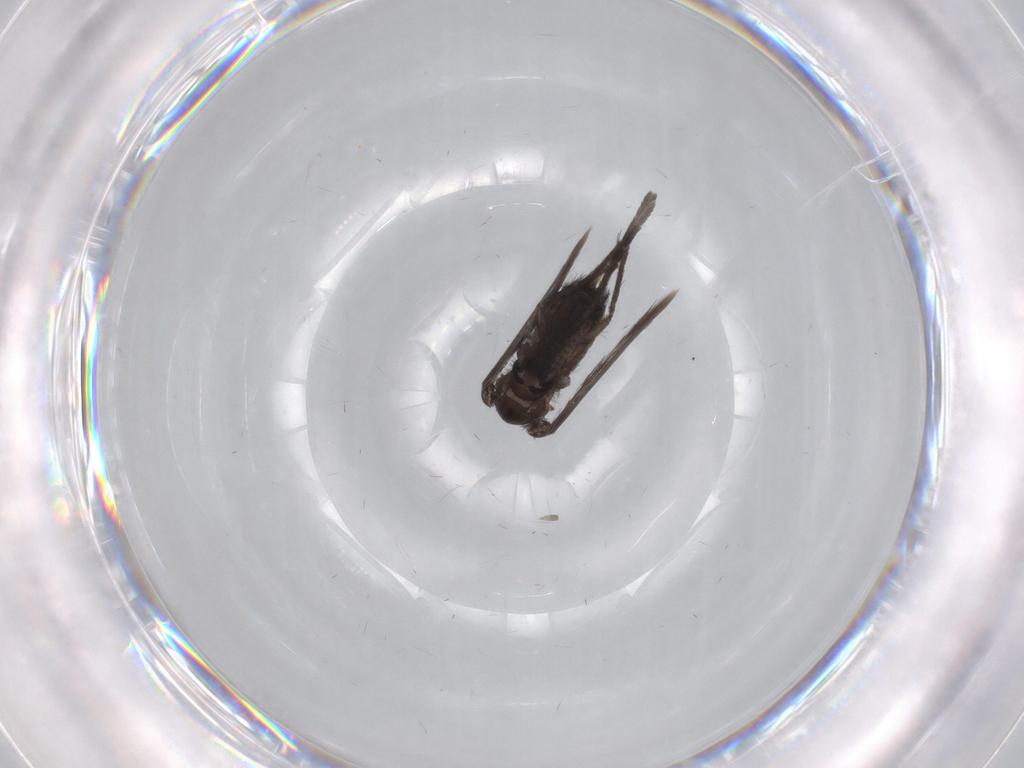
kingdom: Animalia
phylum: Arthropoda
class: Insecta
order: Diptera
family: Psychodidae
